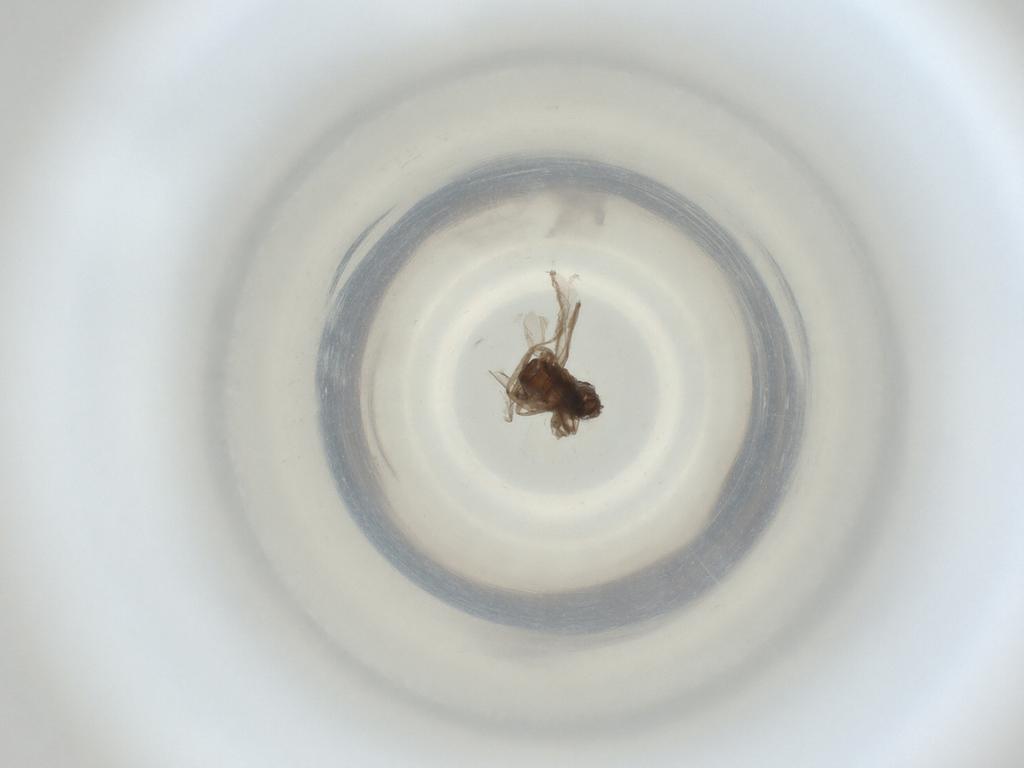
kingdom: Animalia
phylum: Arthropoda
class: Insecta
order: Diptera
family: Cecidomyiidae
